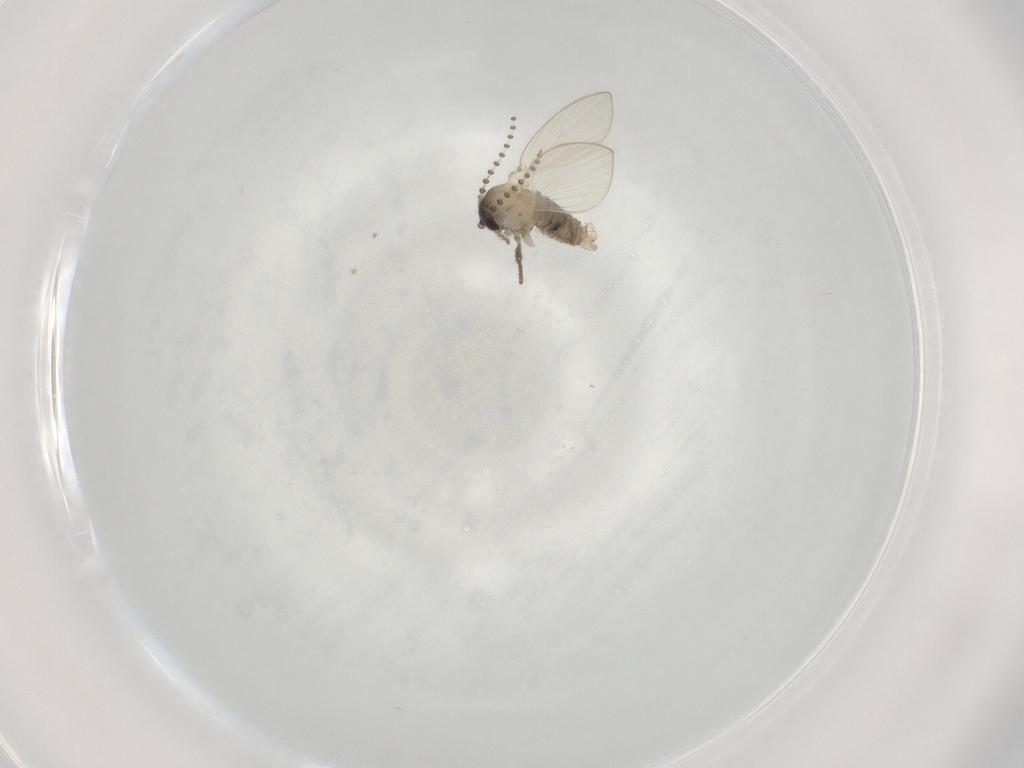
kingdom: Animalia
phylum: Arthropoda
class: Insecta
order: Diptera
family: Psychodidae
